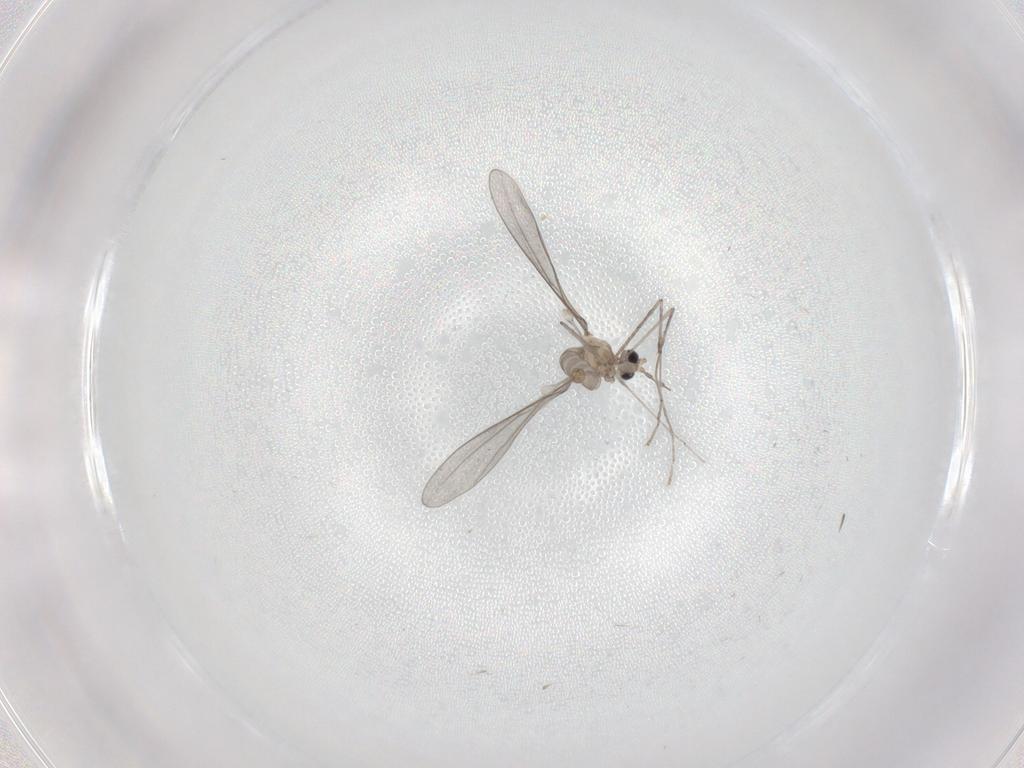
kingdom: Animalia
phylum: Arthropoda
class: Insecta
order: Diptera
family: Cecidomyiidae
